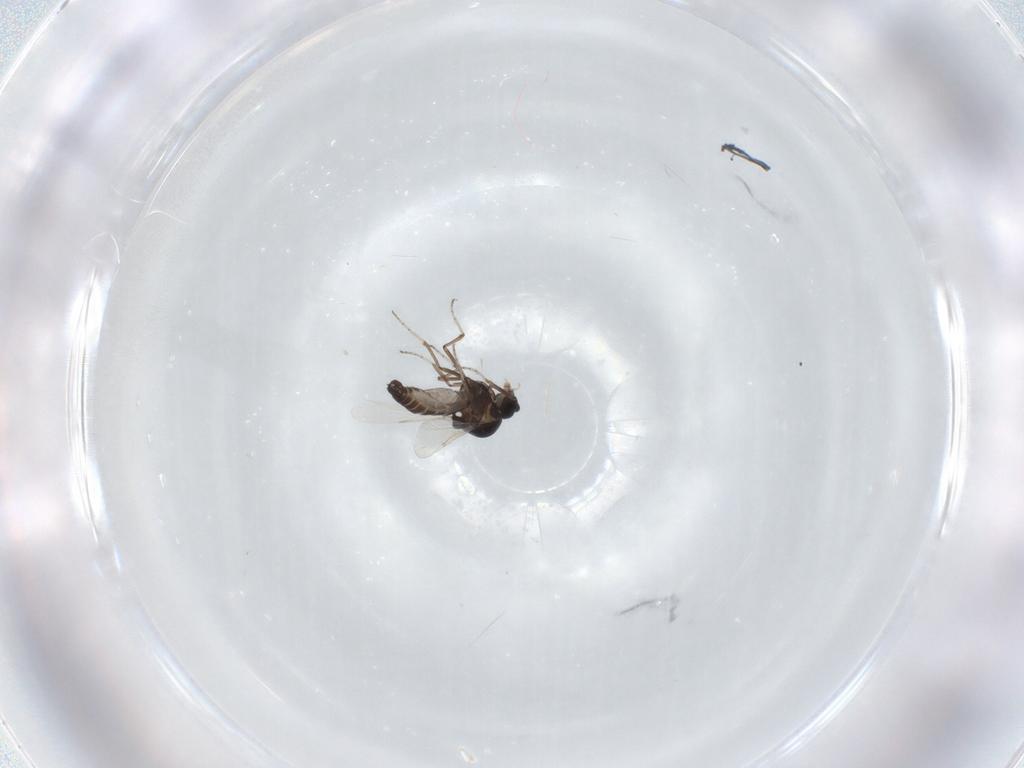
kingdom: Animalia
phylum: Arthropoda
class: Insecta
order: Diptera
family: Ceratopogonidae
